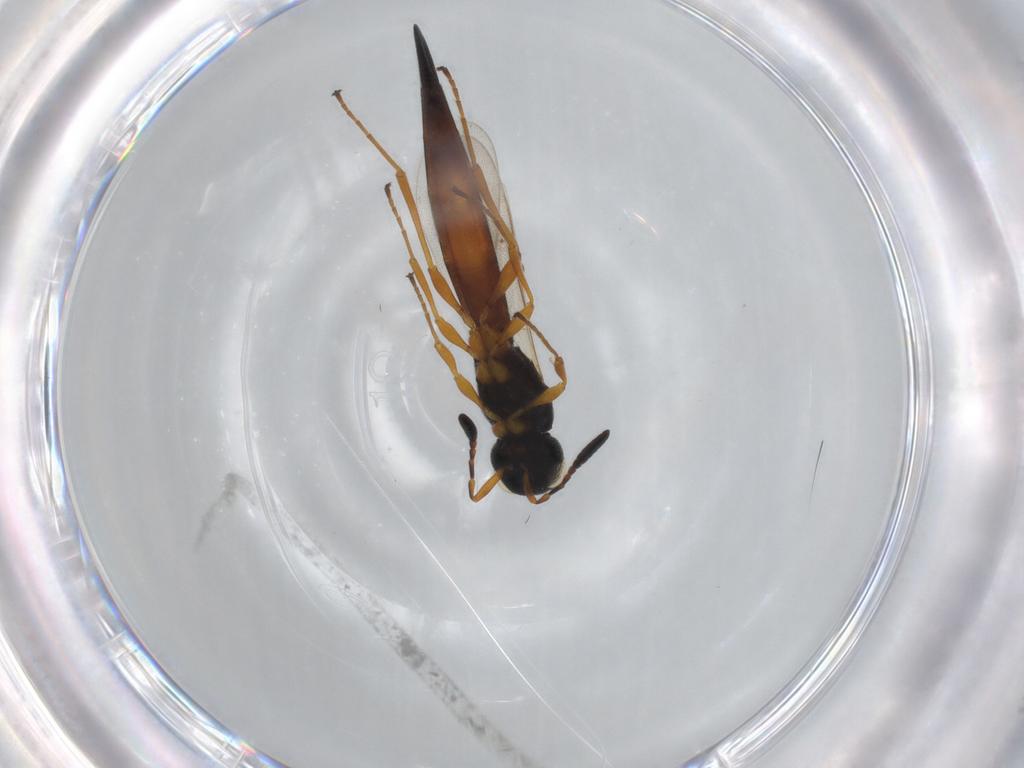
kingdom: Animalia
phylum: Arthropoda
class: Insecta
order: Hymenoptera
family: Scelionidae
